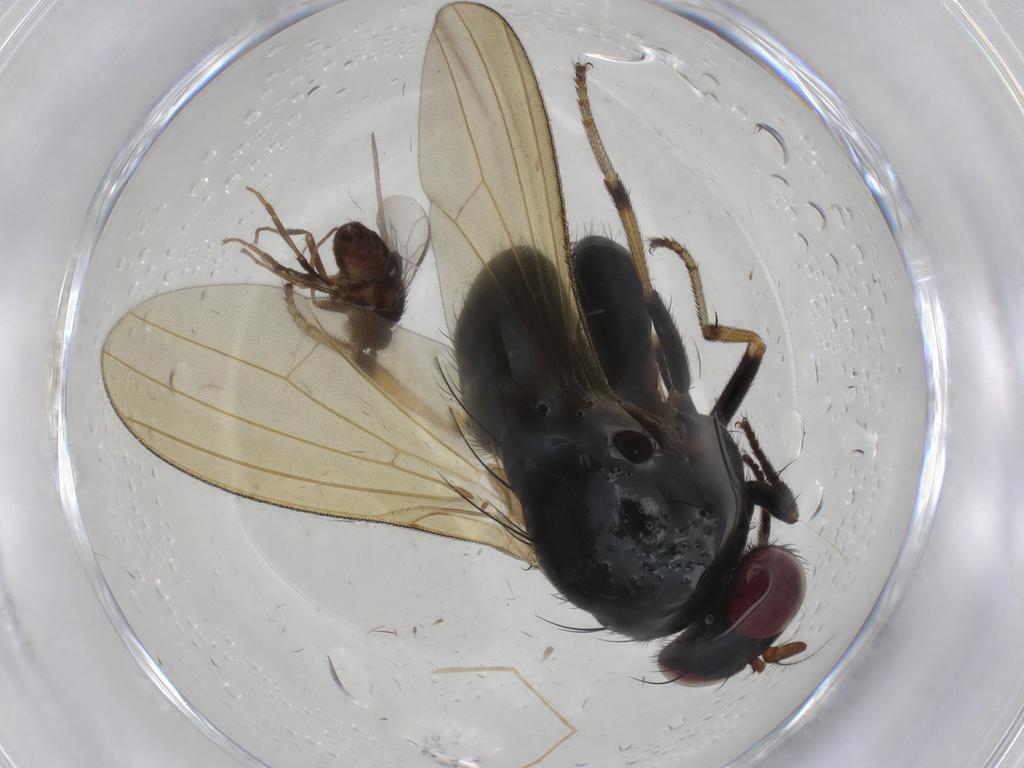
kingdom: Animalia
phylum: Arthropoda
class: Insecta
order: Diptera
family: Sphaeroceridae
